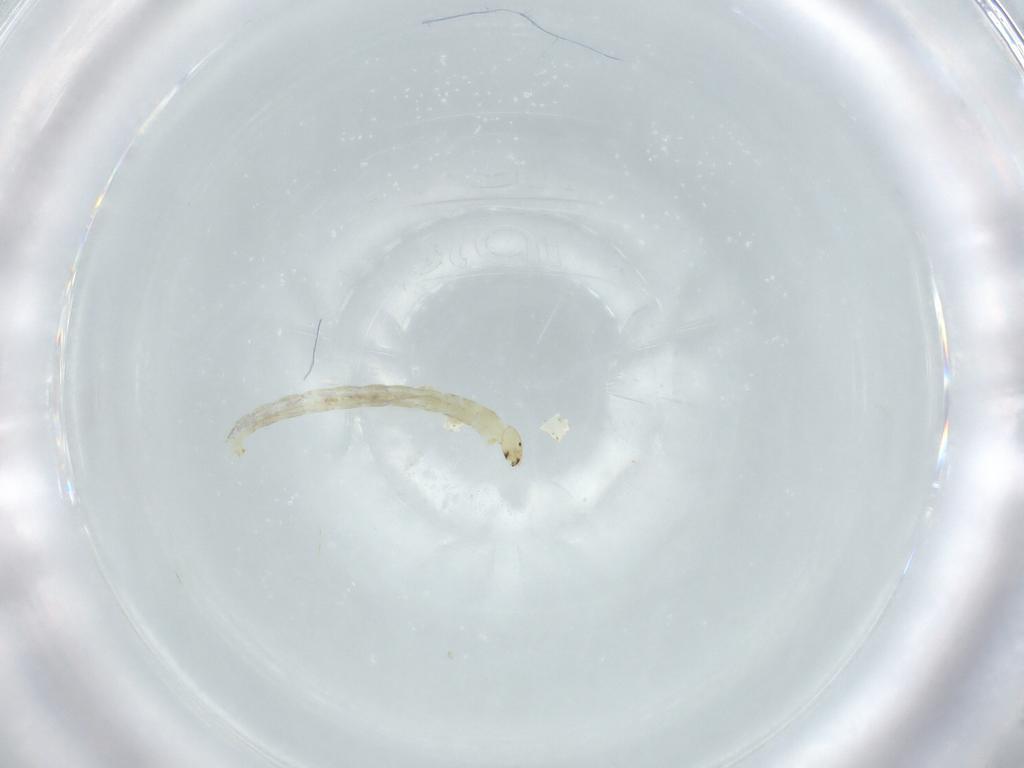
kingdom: Animalia
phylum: Arthropoda
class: Insecta
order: Diptera
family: Chironomidae
